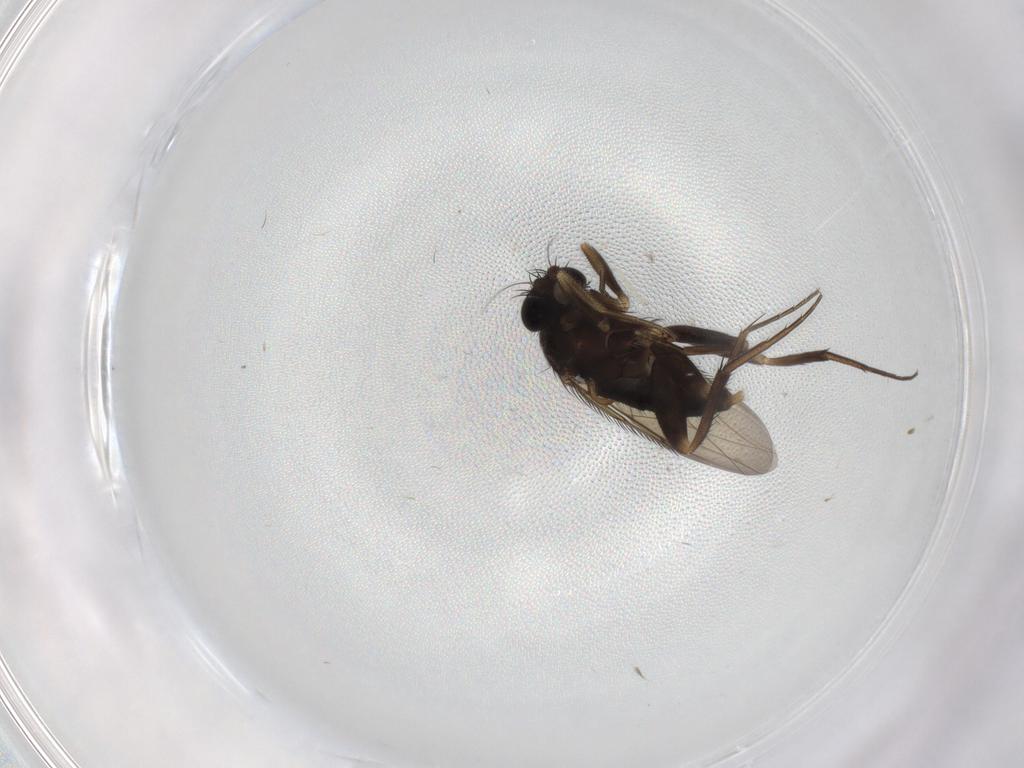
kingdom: Animalia
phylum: Arthropoda
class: Insecta
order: Diptera
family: Phoridae
